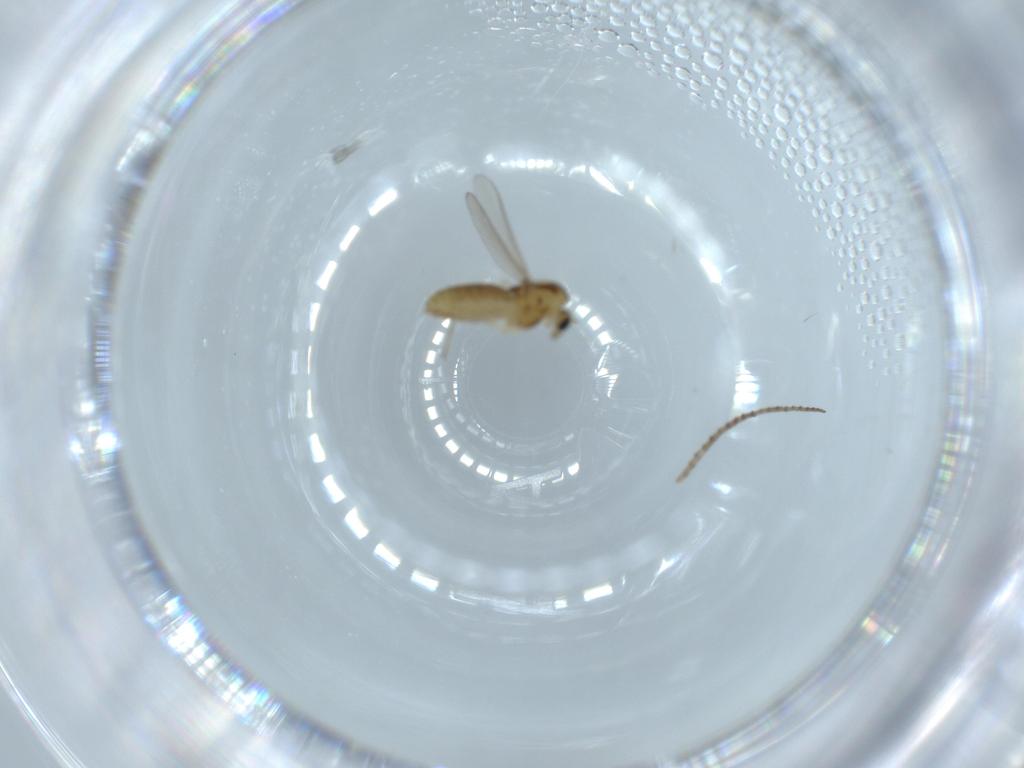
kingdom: Animalia
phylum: Arthropoda
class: Insecta
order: Diptera
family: Chironomidae
